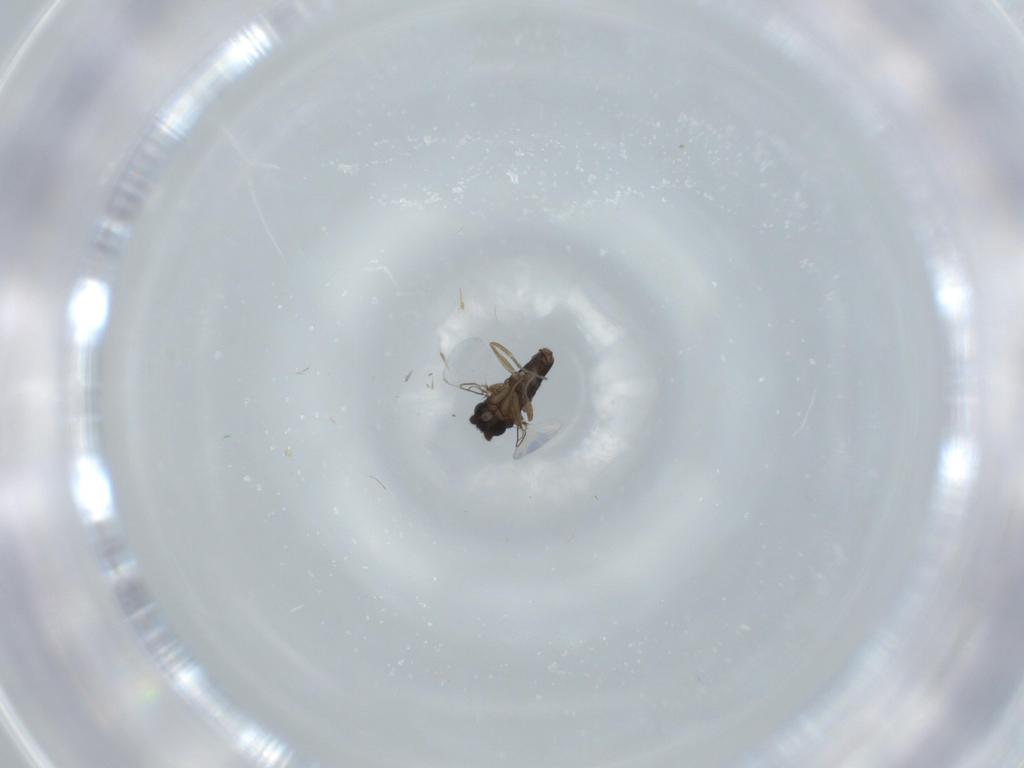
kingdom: Animalia
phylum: Arthropoda
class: Insecta
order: Diptera
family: Phoridae
